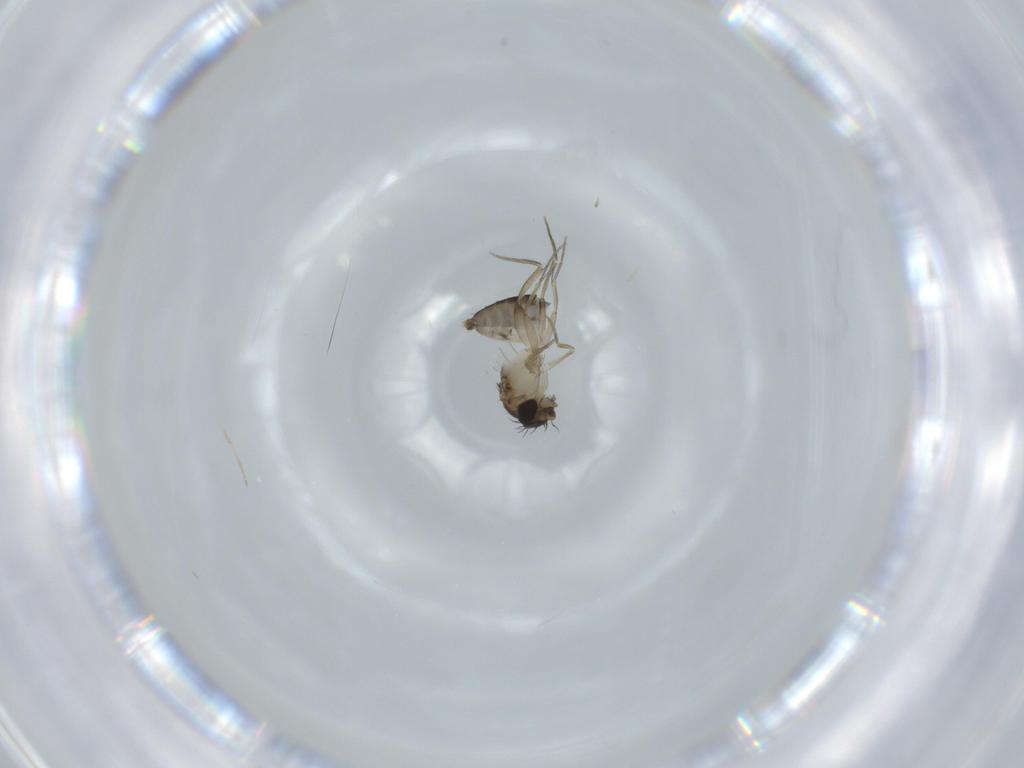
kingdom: Animalia
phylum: Arthropoda
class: Insecta
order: Diptera
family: Phoridae
